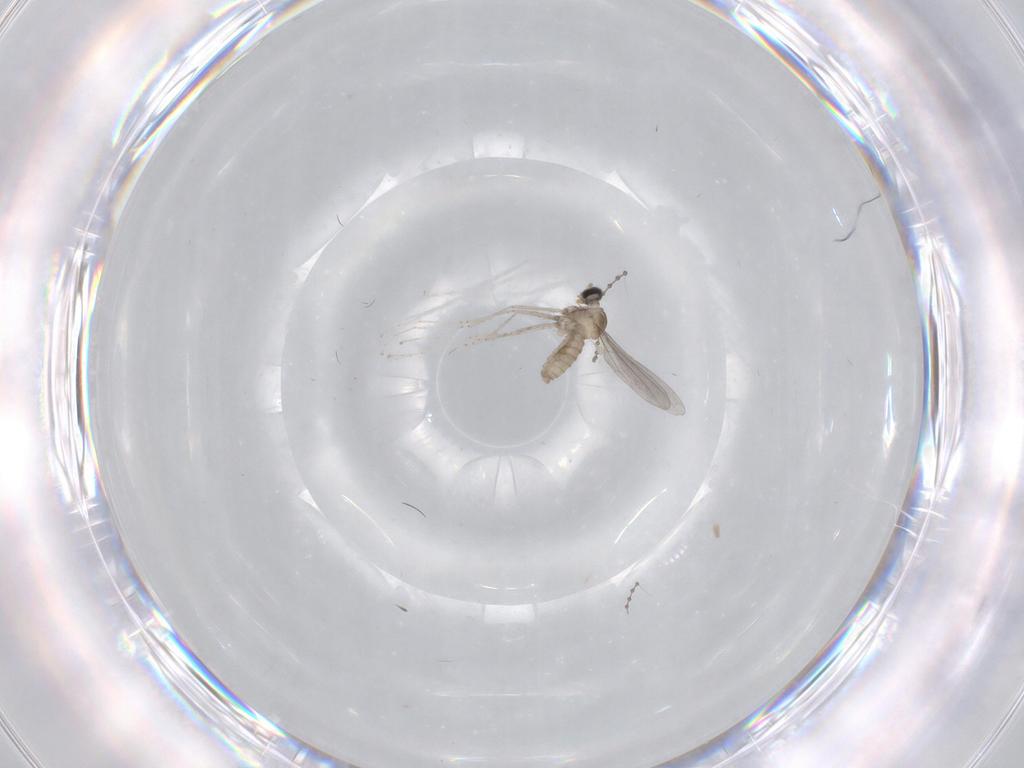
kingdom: Animalia
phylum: Arthropoda
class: Insecta
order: Diptera
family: Cecidomyiidae
